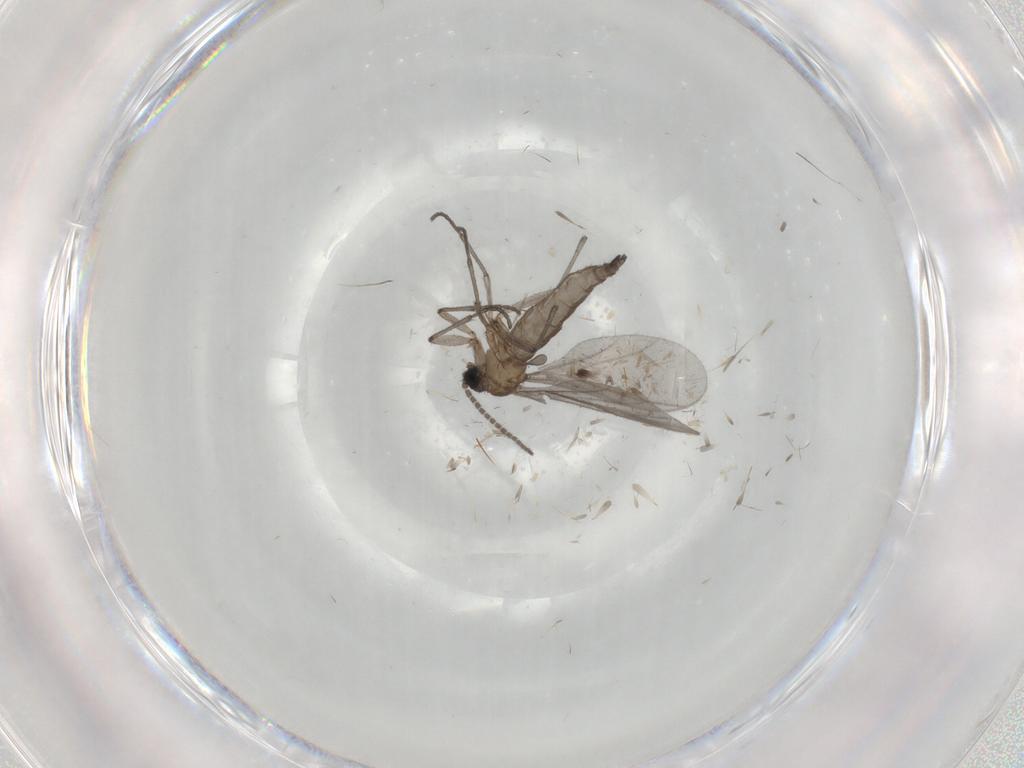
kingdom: Animalia
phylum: Arthropoda
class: Insecta
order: Diptera
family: Sciaridae
